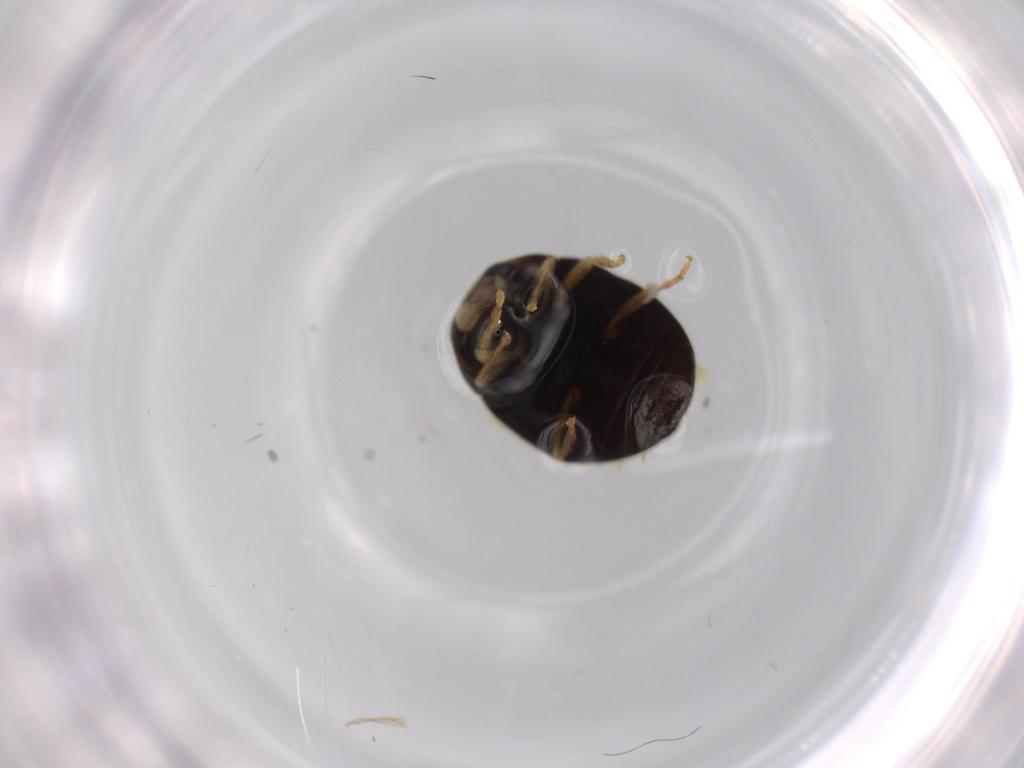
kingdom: Animalia
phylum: Arthropoda
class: Insecta
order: Coleoptera
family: Coccinellidae
